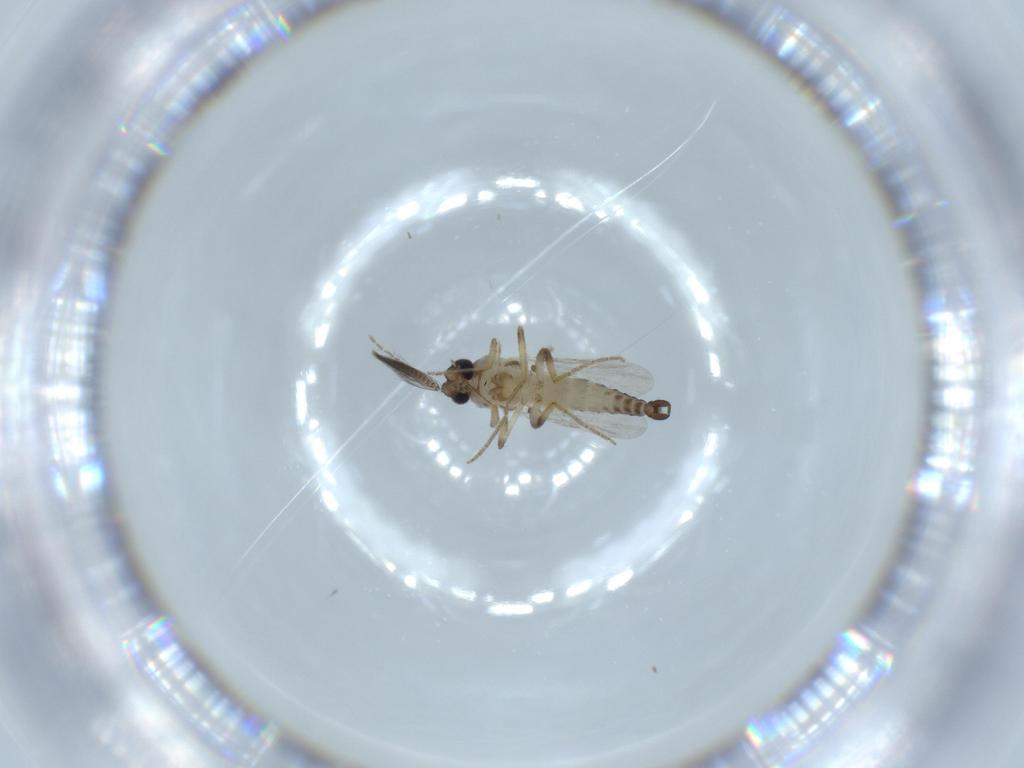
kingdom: Animalia
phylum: Arthropoda
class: Insecta
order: Diptera
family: Ceratopogonidae
